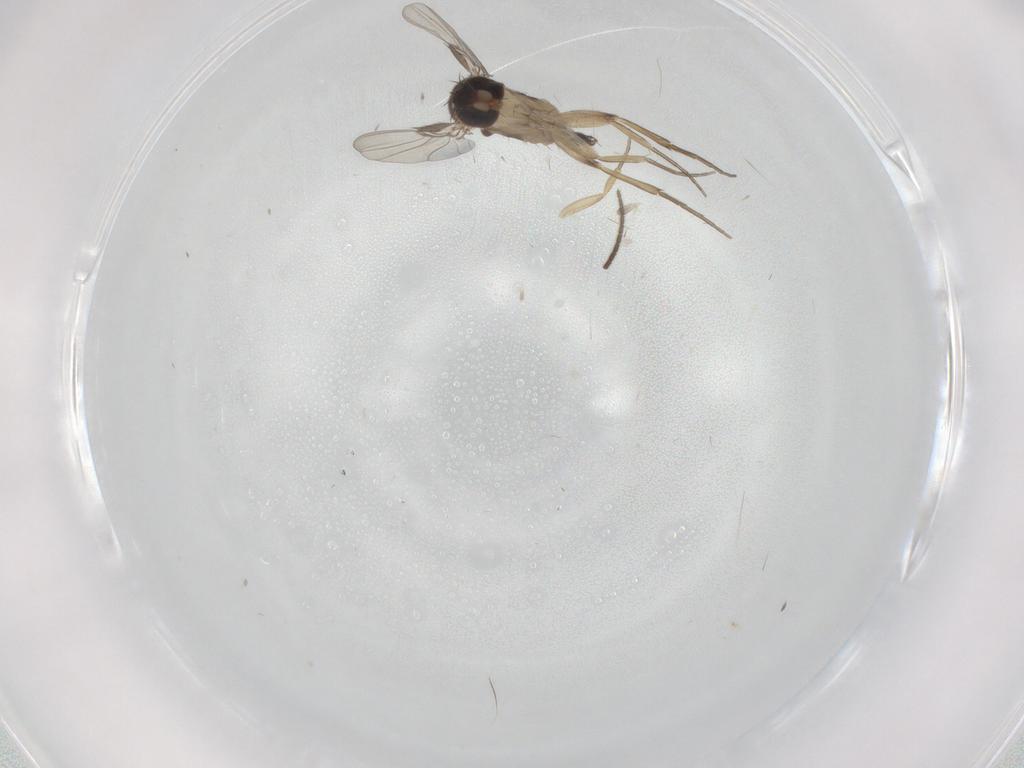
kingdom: Animalia
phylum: Arthropoda
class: Insecta
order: Diptera
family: Sciaridae
